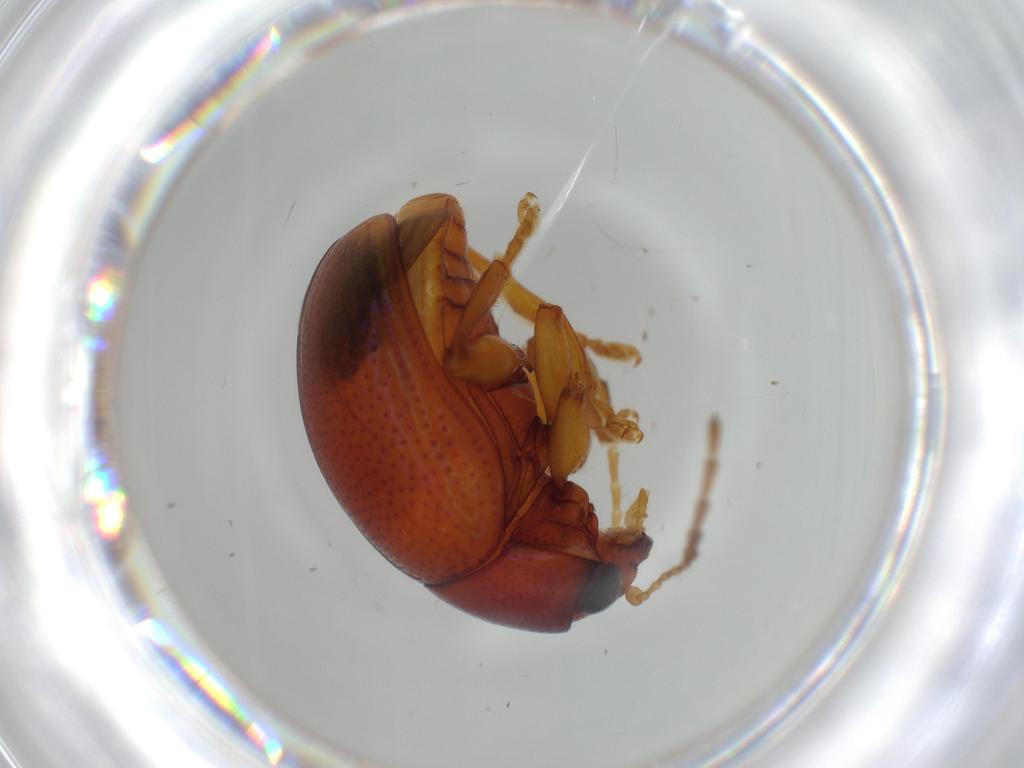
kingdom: Animalia
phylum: Arthropoda
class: Insecta
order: Coleoptera
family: Chrysomelidae
